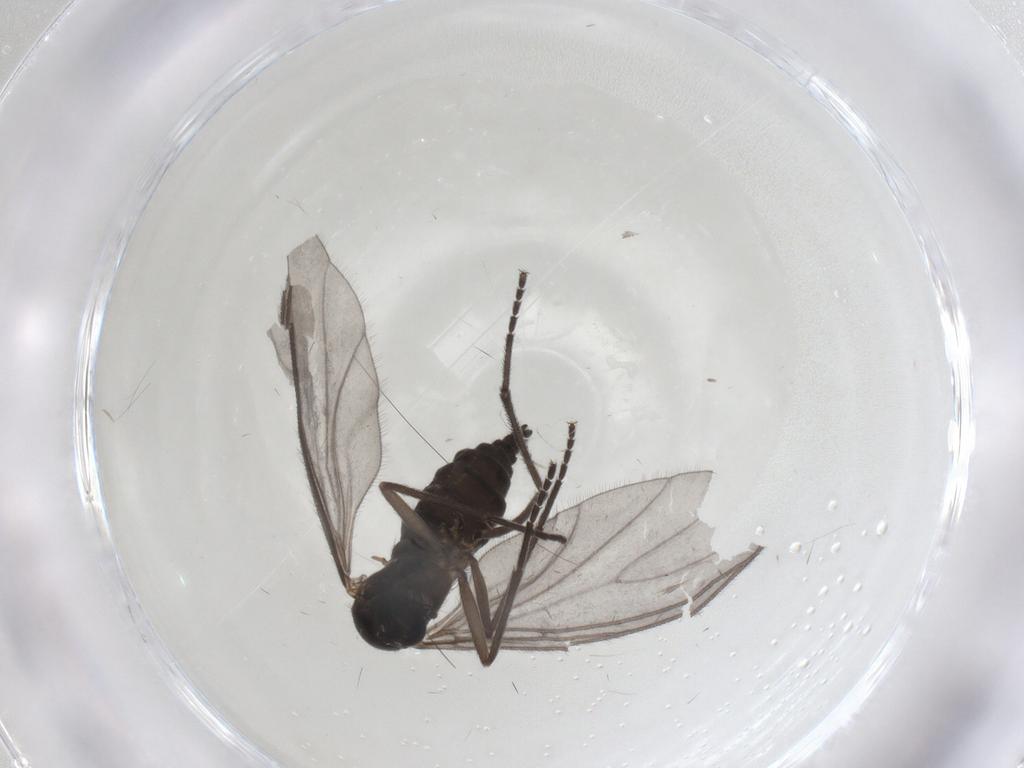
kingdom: Animalia
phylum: Arthropoda
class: Insecta
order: Diptera
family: Sciaridae
